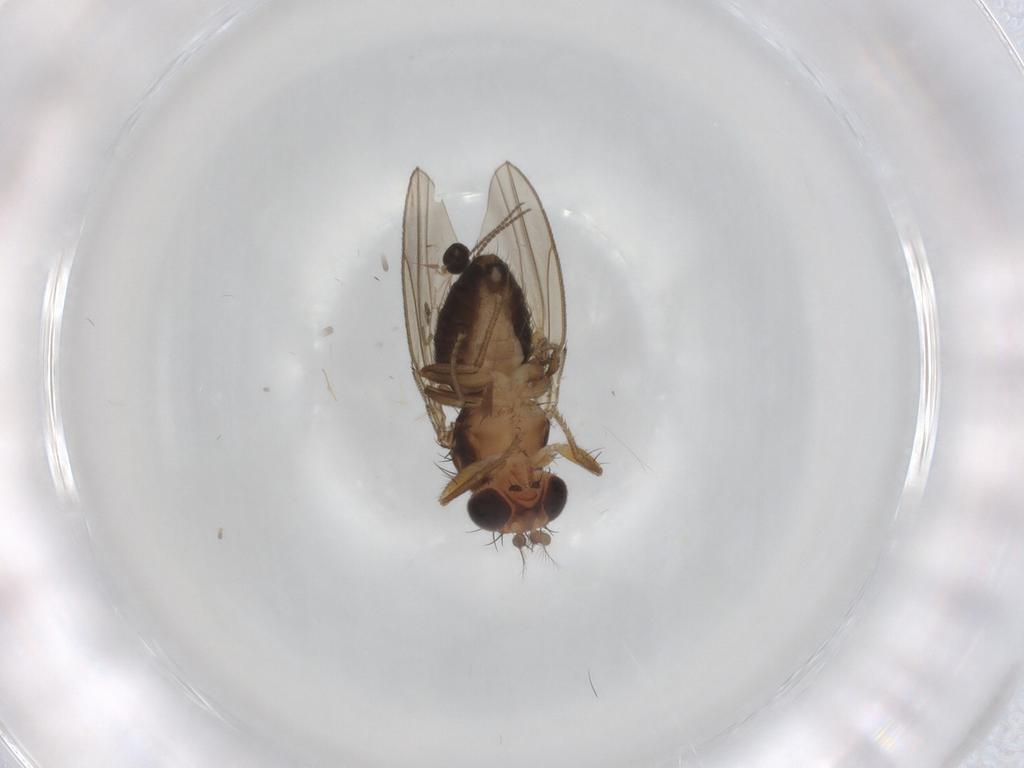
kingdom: Animalia
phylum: Arthropoda
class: Insecta
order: Diptera
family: Drosophilidae
